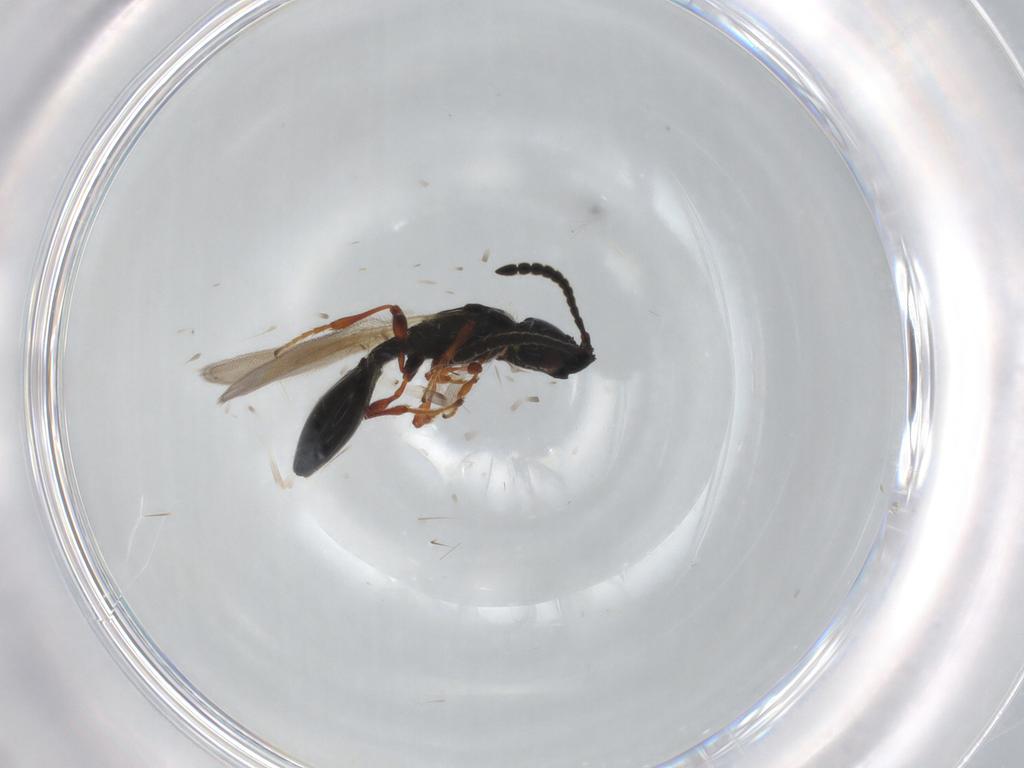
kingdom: Animalia
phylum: Arthropoda
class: Insecta
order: Hymenoptera
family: Diapriidae
